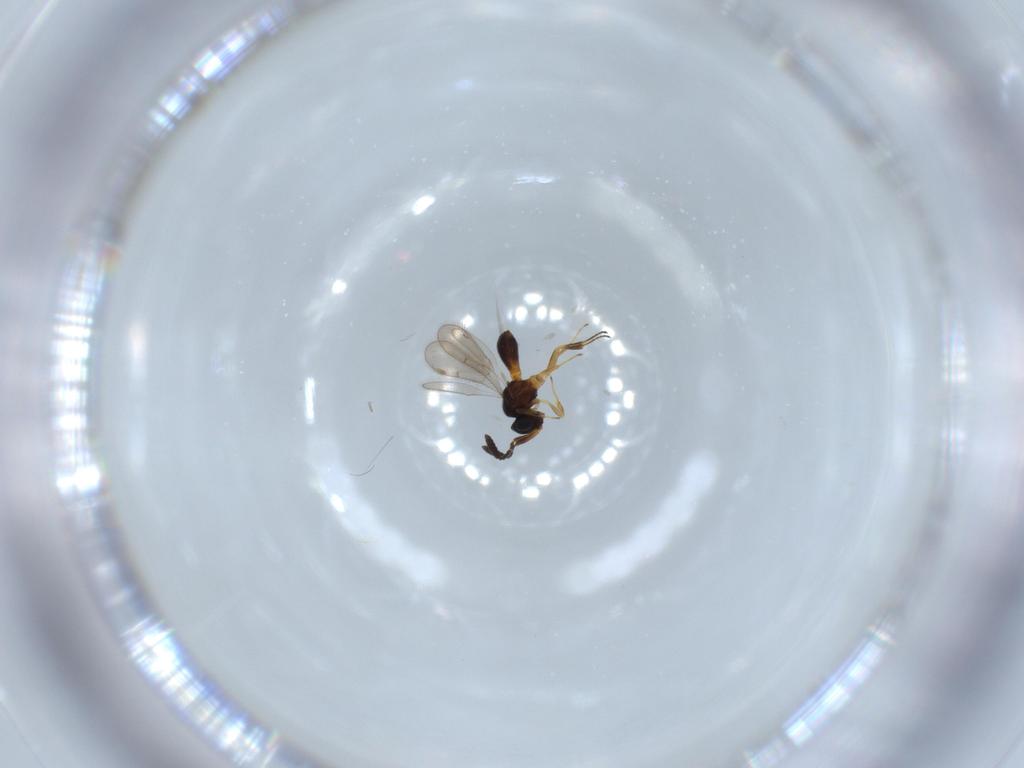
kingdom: Animalia
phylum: Arthropoda
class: Insecta
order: Hymenoptera
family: Scelionidae
